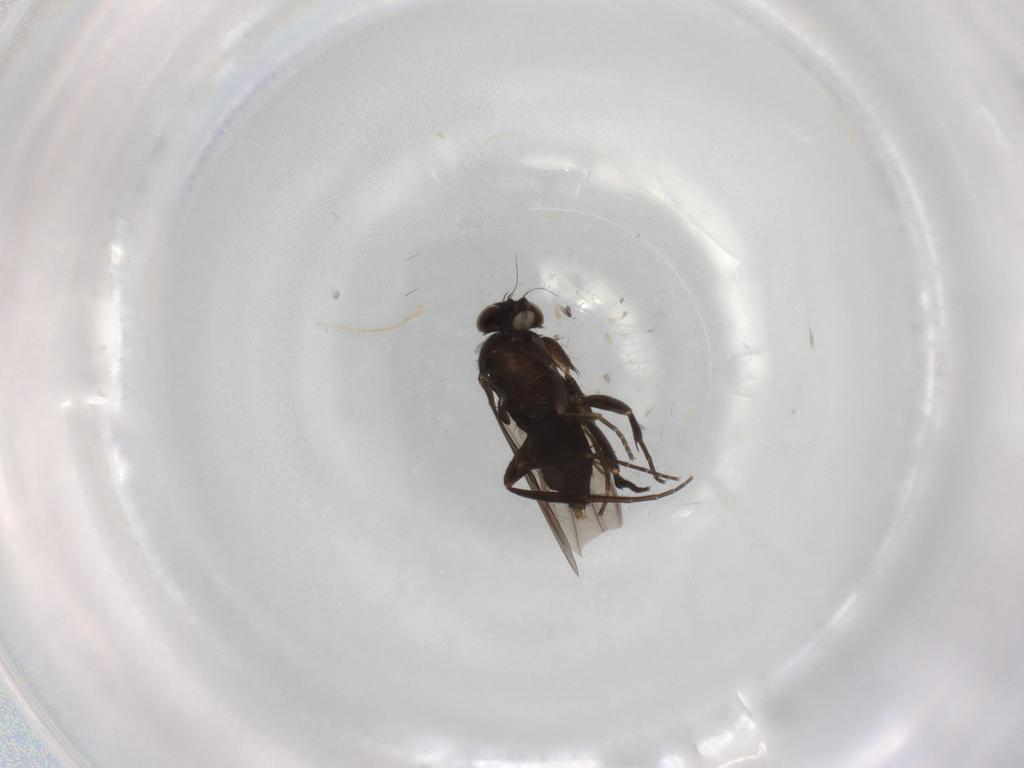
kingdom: Animalia
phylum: Arthropoda
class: Insecta
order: Diptera
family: Phoridae
